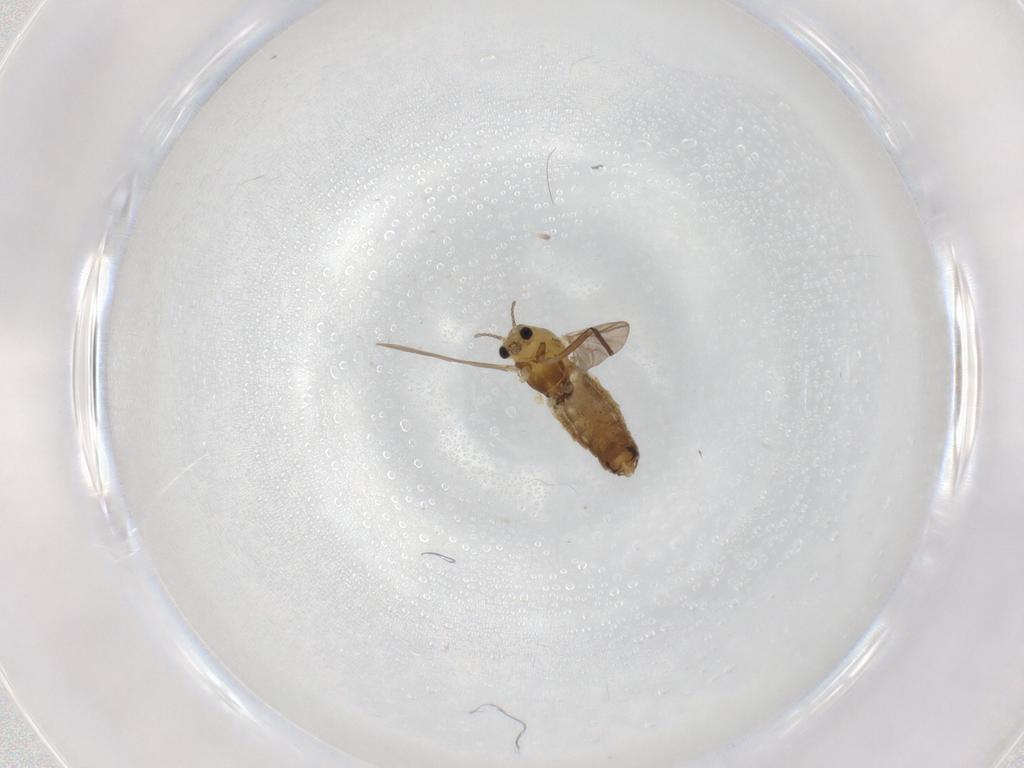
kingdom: Animalia
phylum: Arthropoda
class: Insecta
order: Diptera
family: Chironomidae
